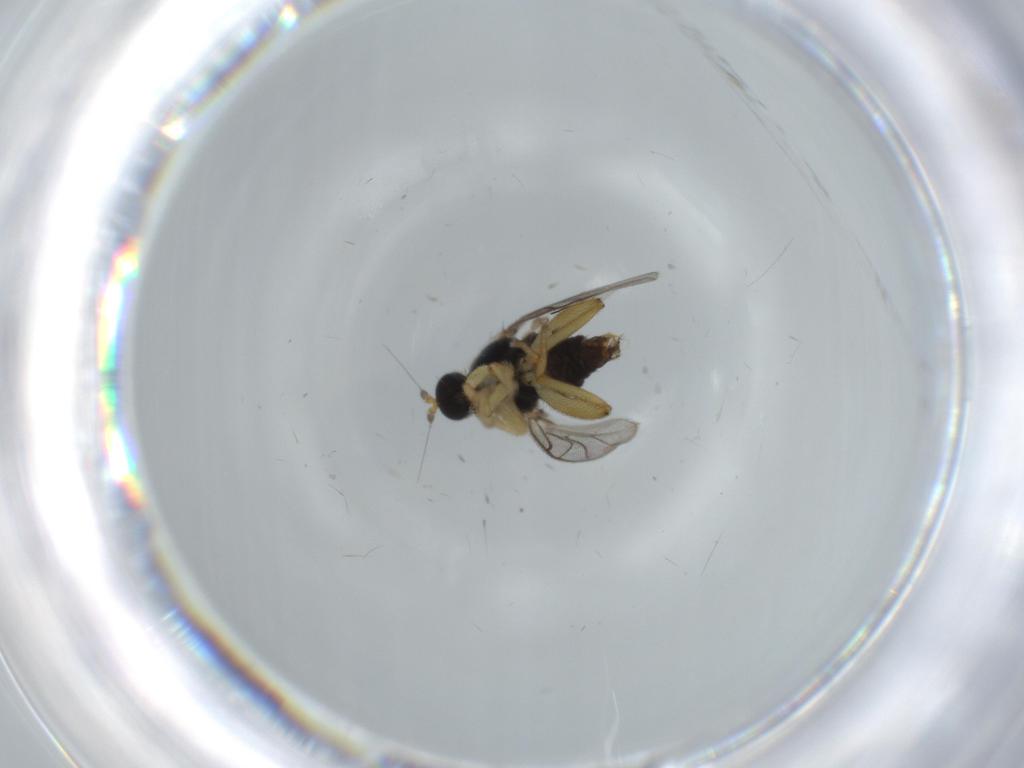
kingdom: Animalia
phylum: Arthropoda
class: Insecta
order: Diptera
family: Hybotidae
